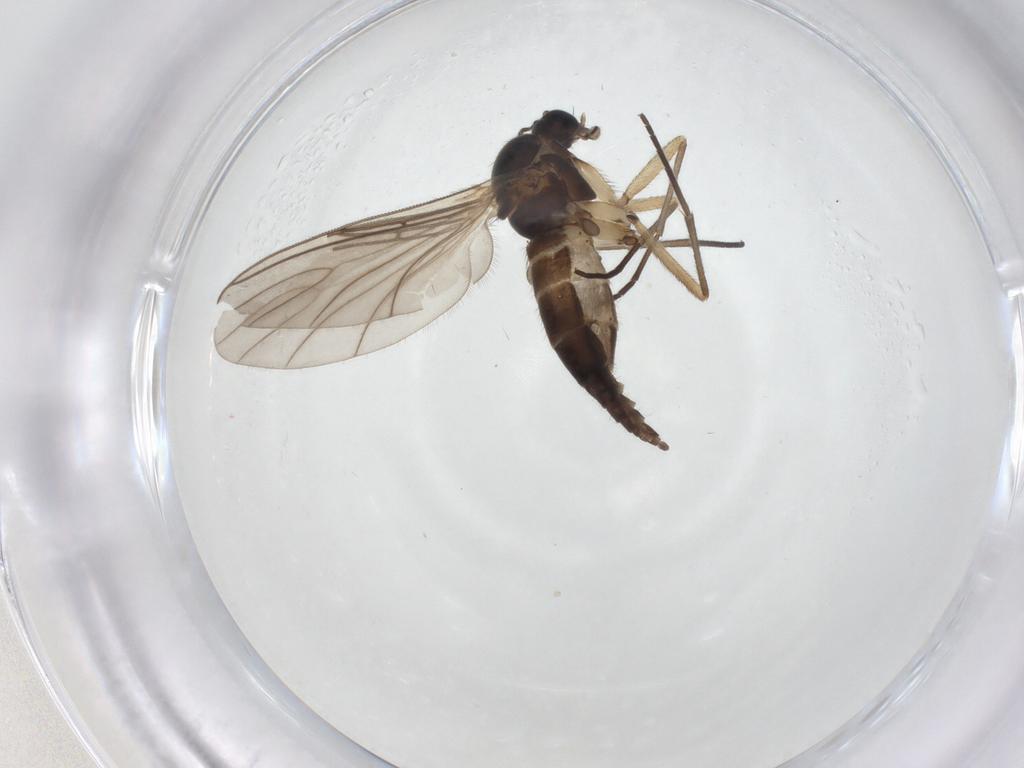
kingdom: Animalia
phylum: Arthropoda
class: Insecta
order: Diptera
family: Sciaridae
